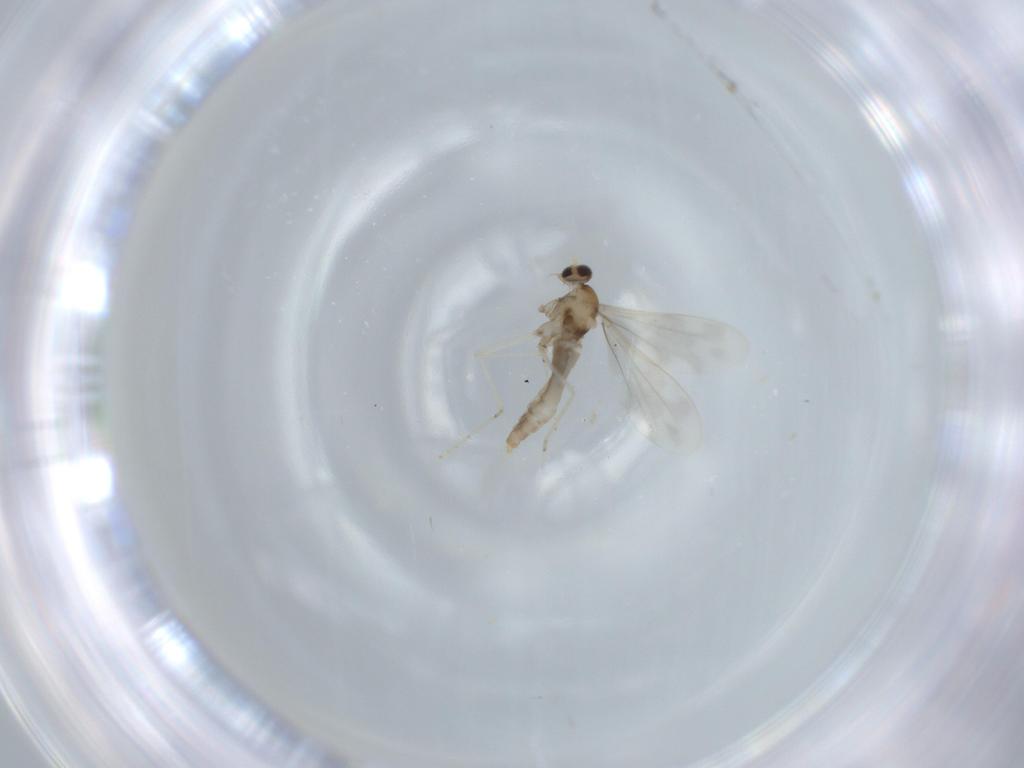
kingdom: Animalia
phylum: Arthropoda
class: Insecta
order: Diptera
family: Cecidomyiidae
